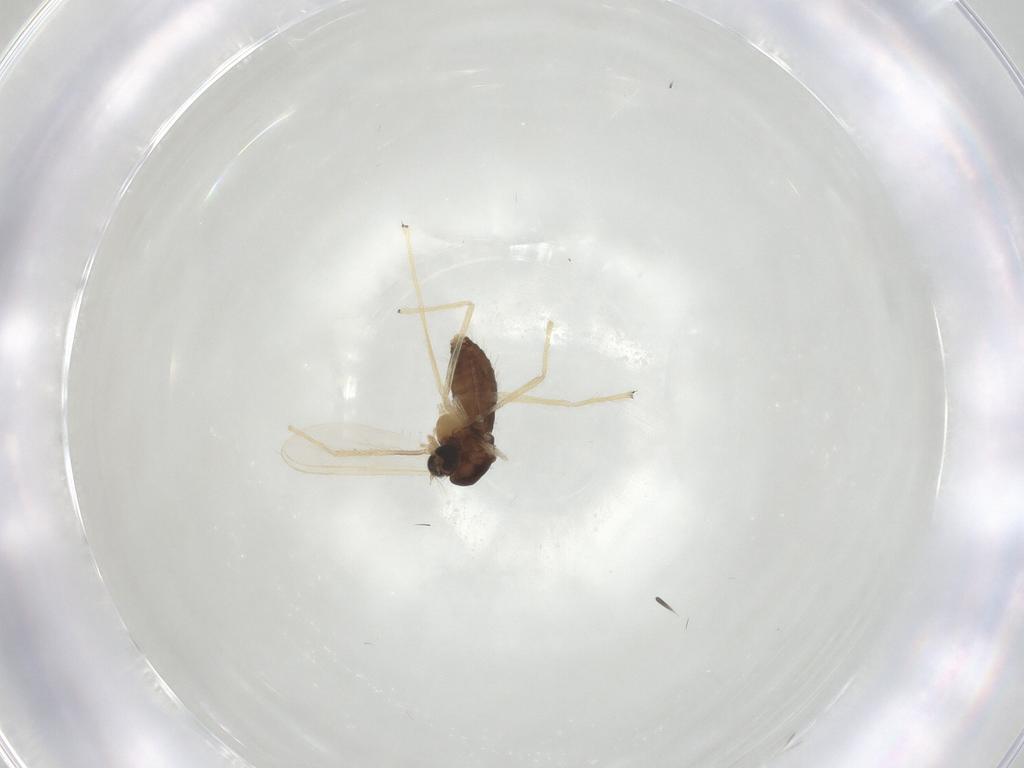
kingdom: Animalia
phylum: Arthropoda
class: Insecta
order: Diptera
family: Chironomidae
